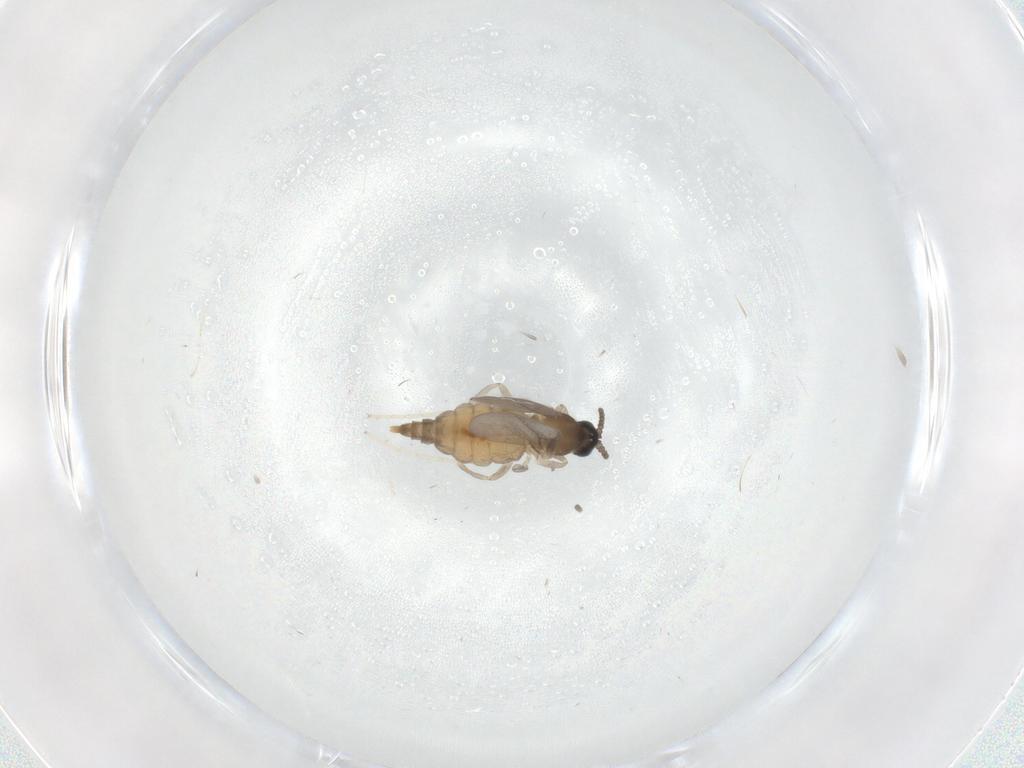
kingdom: Animalia
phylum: Arthropoda
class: Insecta
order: Diptera
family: Cecidomyiidae
